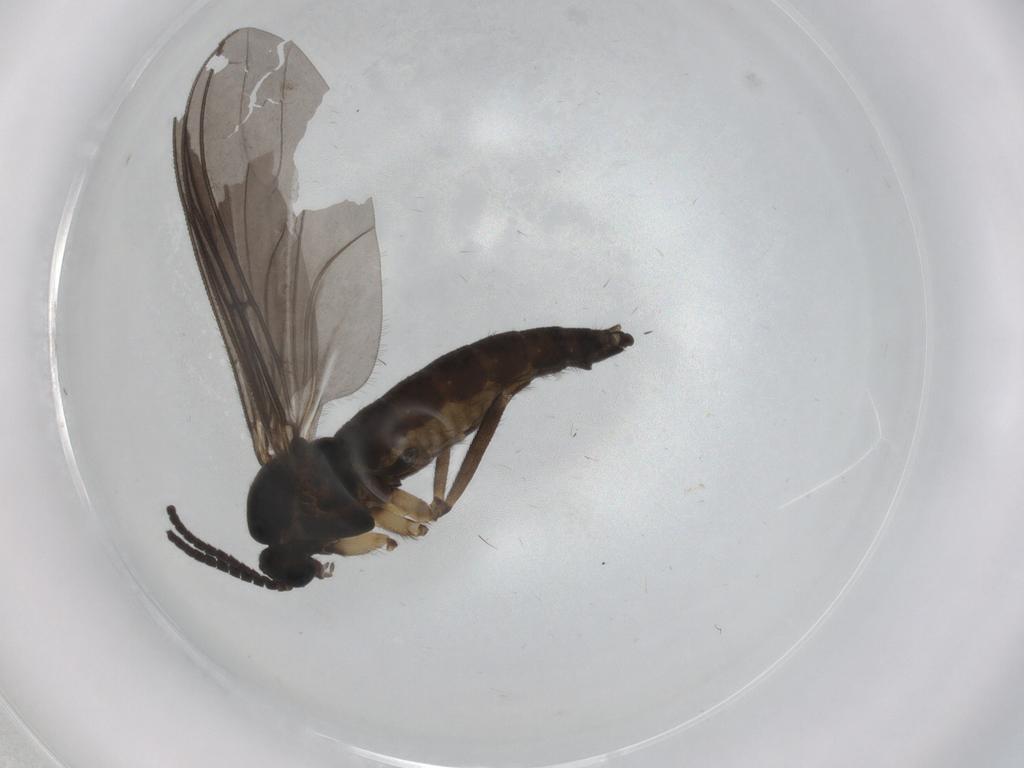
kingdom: Animalia
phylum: Arthropoda
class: Insecta
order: Diptera
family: Sciaridae
